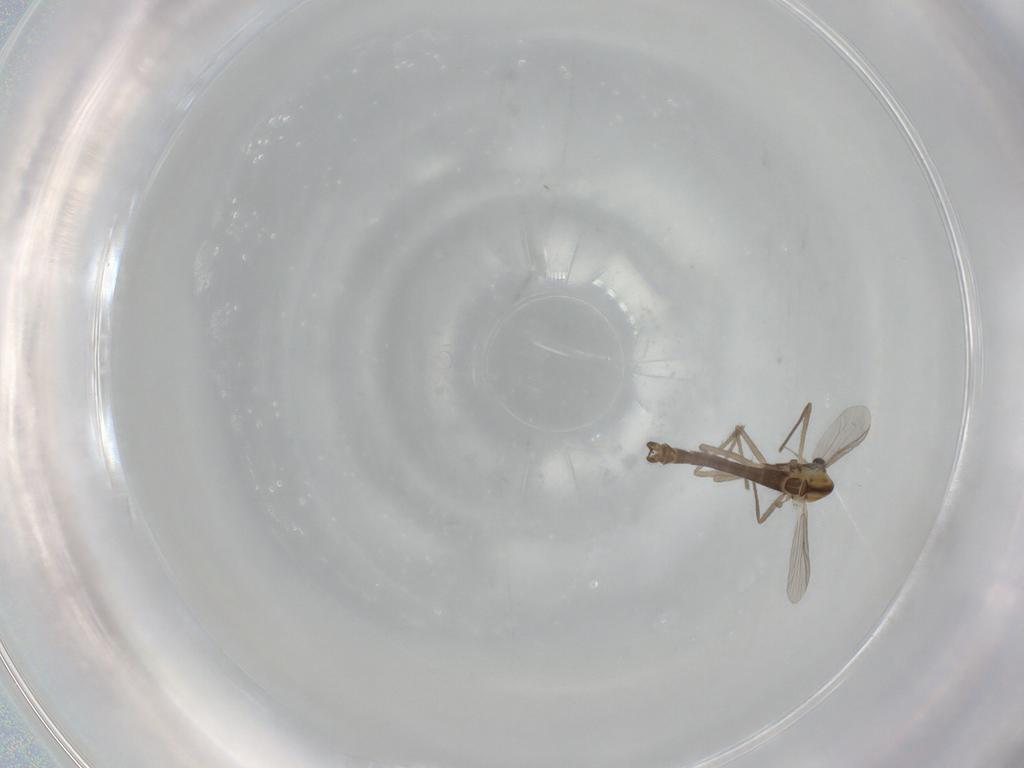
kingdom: Animalia
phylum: Arthropoda
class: Insecta
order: Diptera
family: Chironomidae
